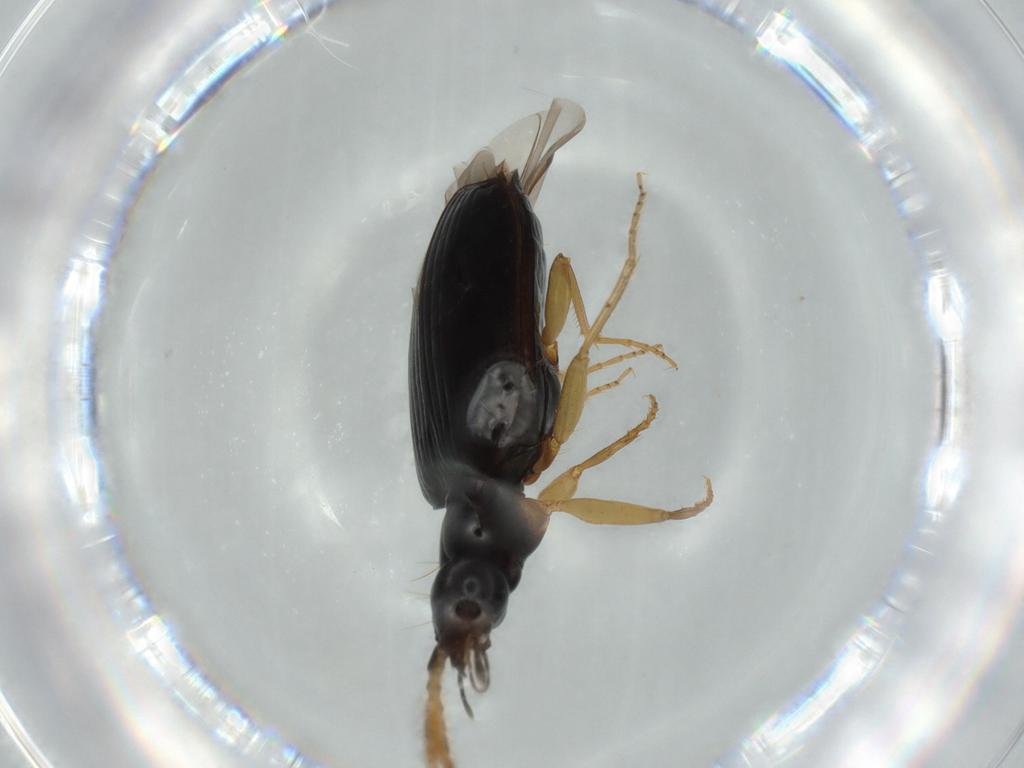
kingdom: Animalia
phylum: Arthropoda
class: Insecta
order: Coleoptera
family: Carabidae
